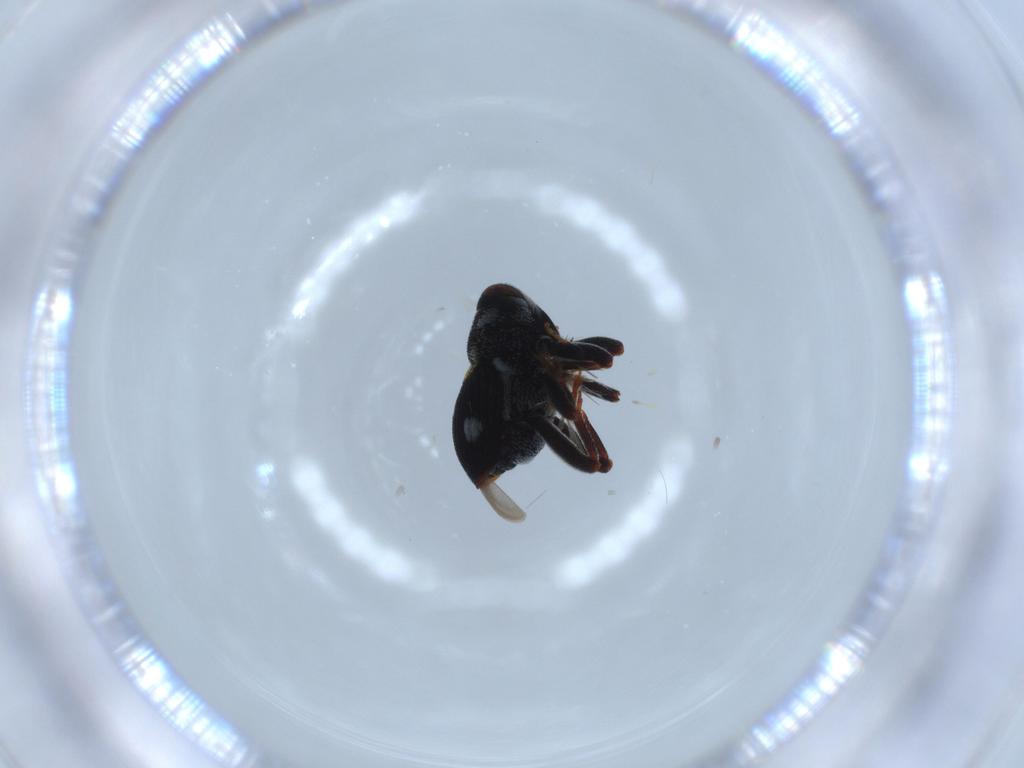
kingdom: Animalia
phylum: Arthropoda
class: Insecta
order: Coleoptera
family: Curculionidae
